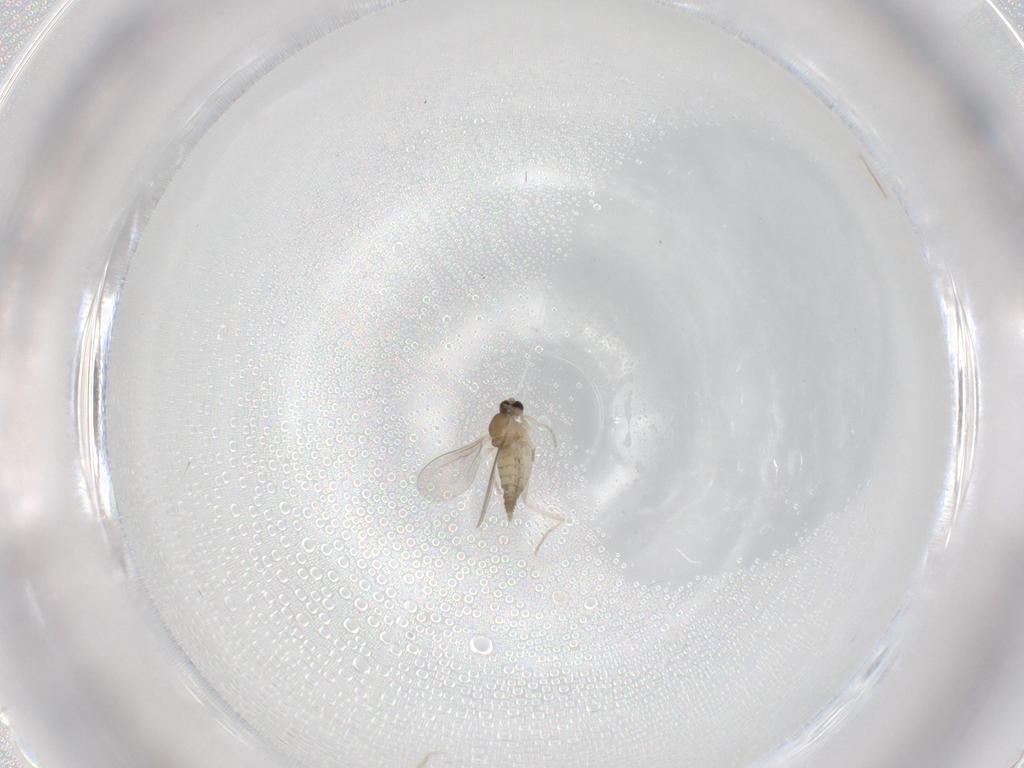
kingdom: Animalia
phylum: Arthropoda
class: Insecta
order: Diptera
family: Cecidomyiidae
